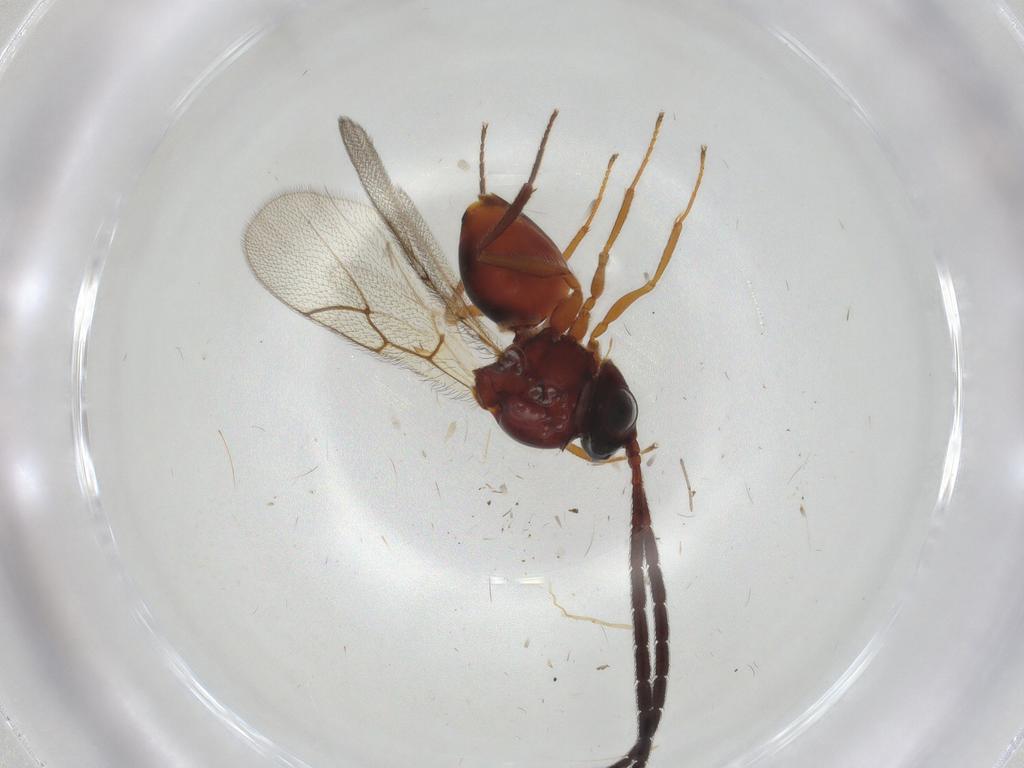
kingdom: Animalia
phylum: Arthropoda
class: Insecta
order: Hymenoptera
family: Figitidae
